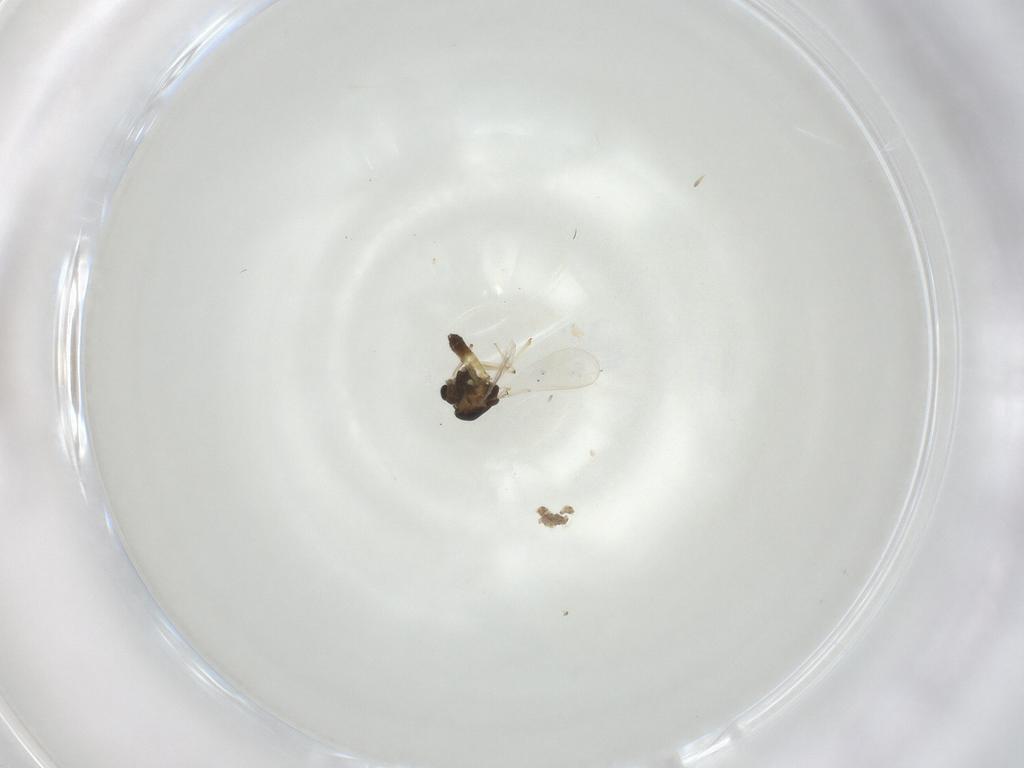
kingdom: Animalia
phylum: Arthropoda
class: Insecta
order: Diptera
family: Chironomidae
